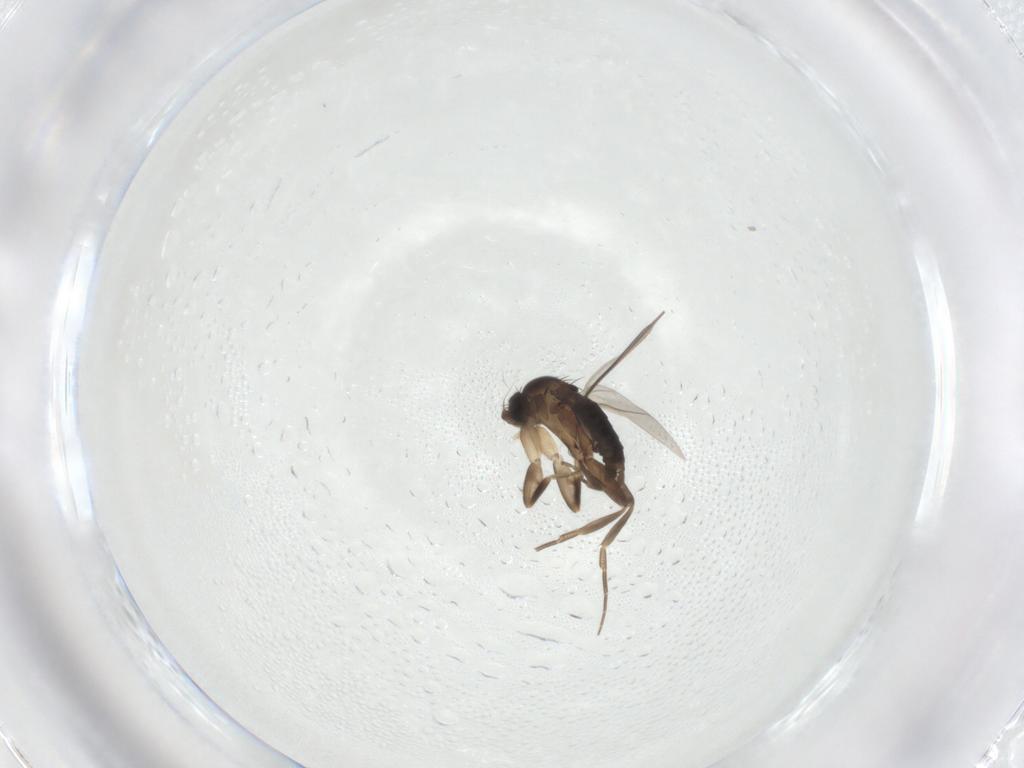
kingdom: Animalia
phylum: Arthropoda
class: Insecta
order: Diptera
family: Phoridae
